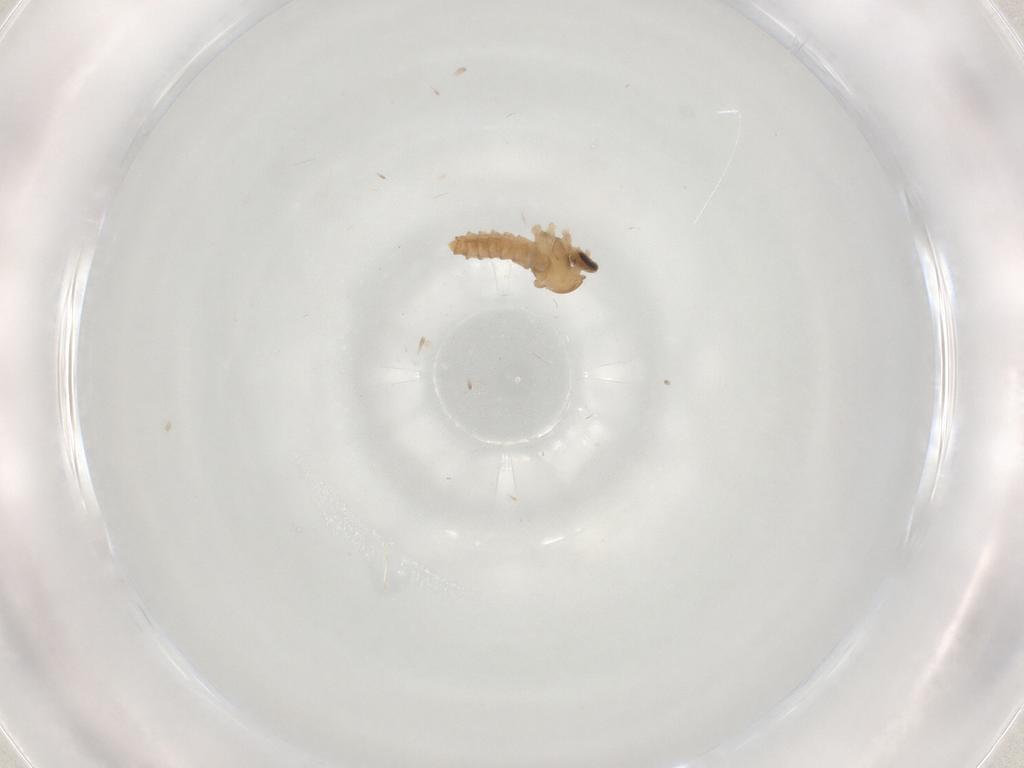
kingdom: Animalia
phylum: Arthropoda
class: Insecta
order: Diptera
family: Cecidomyiidae
